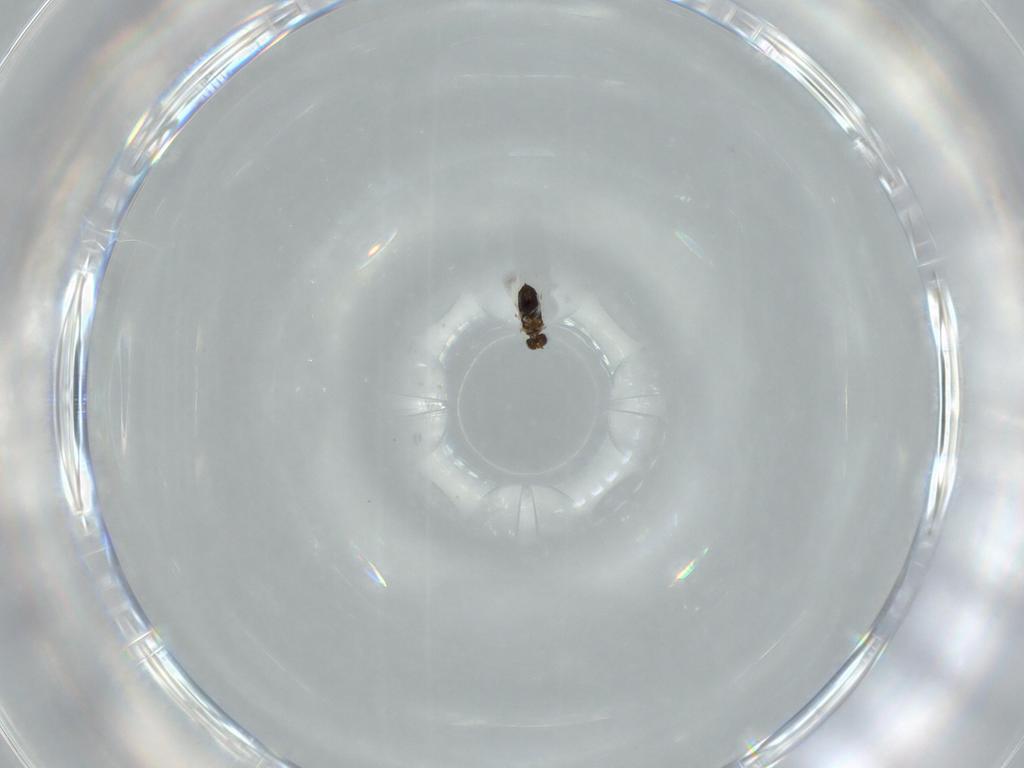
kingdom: Animalia
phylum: Arthropoda
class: Insecta
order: Hymenoptera
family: Signiphoridae
